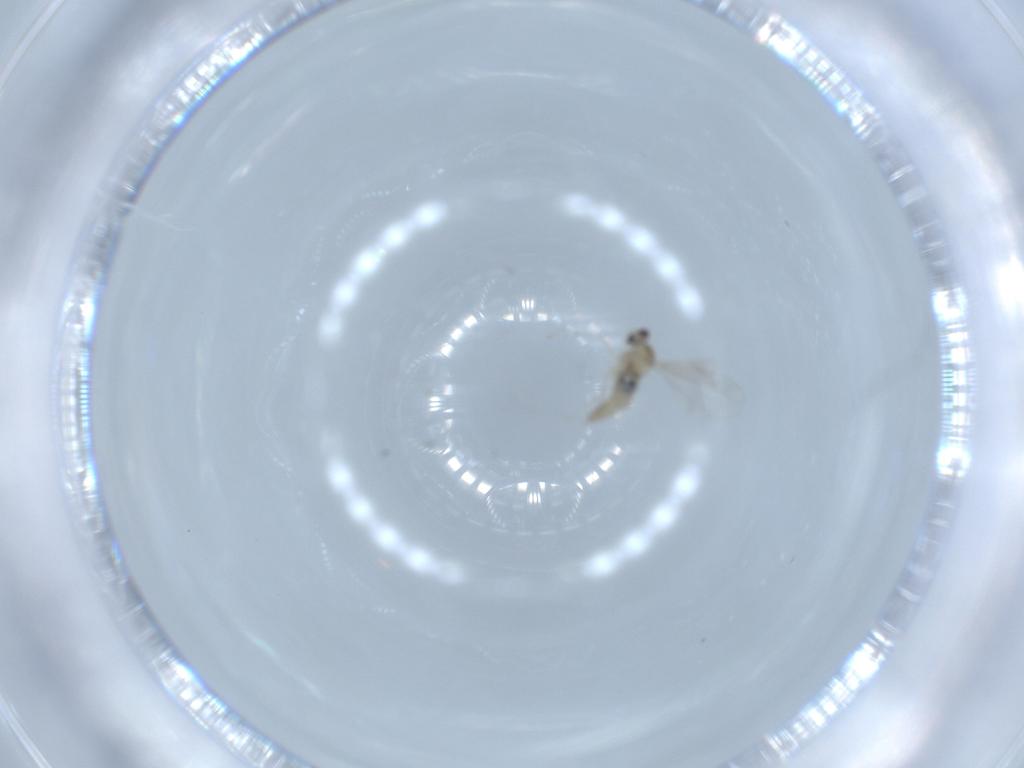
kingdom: Animalia
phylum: Arthropoda
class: Insecta
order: Diptera
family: Cecidomyiidae
